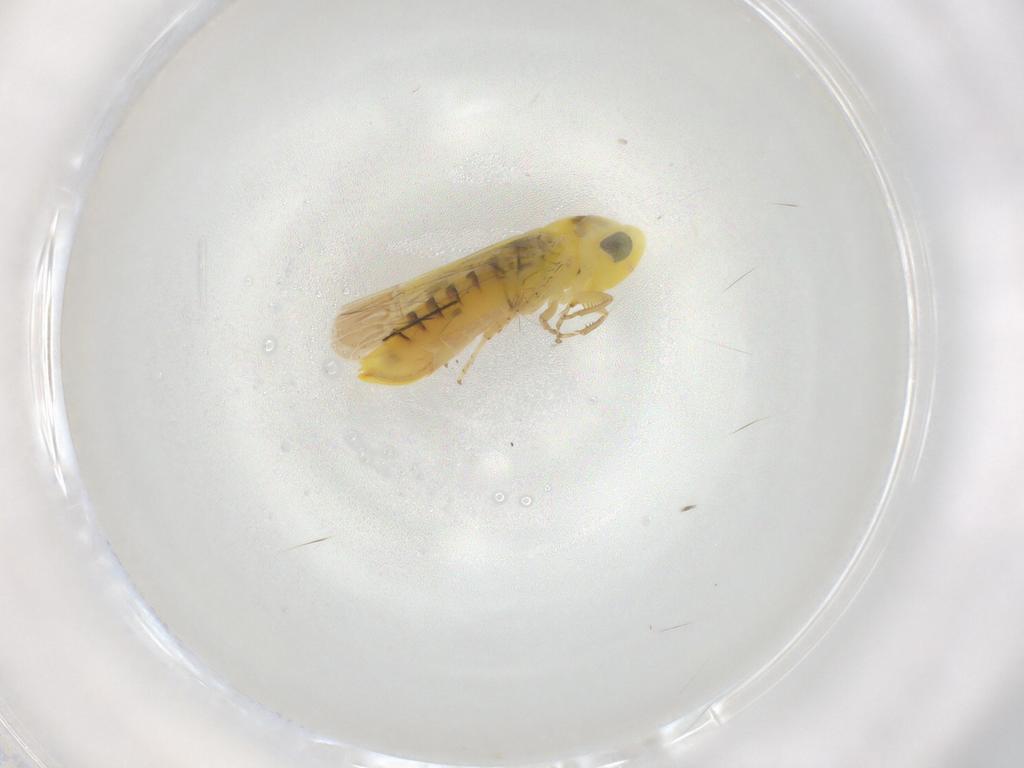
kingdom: Animalia
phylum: Arthropoda
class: Insecta
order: Hemiptera
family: Cicadellidae
